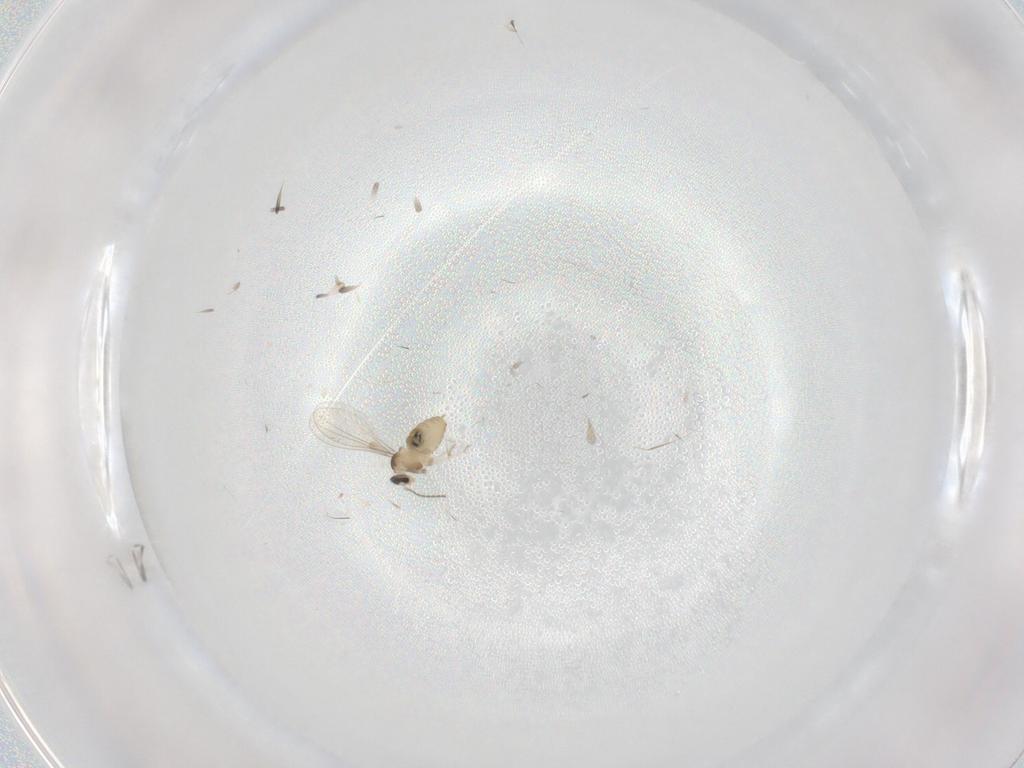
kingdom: Animalia
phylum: Arthropoda
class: Insecta
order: Diptera
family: Cecidomyiidae
